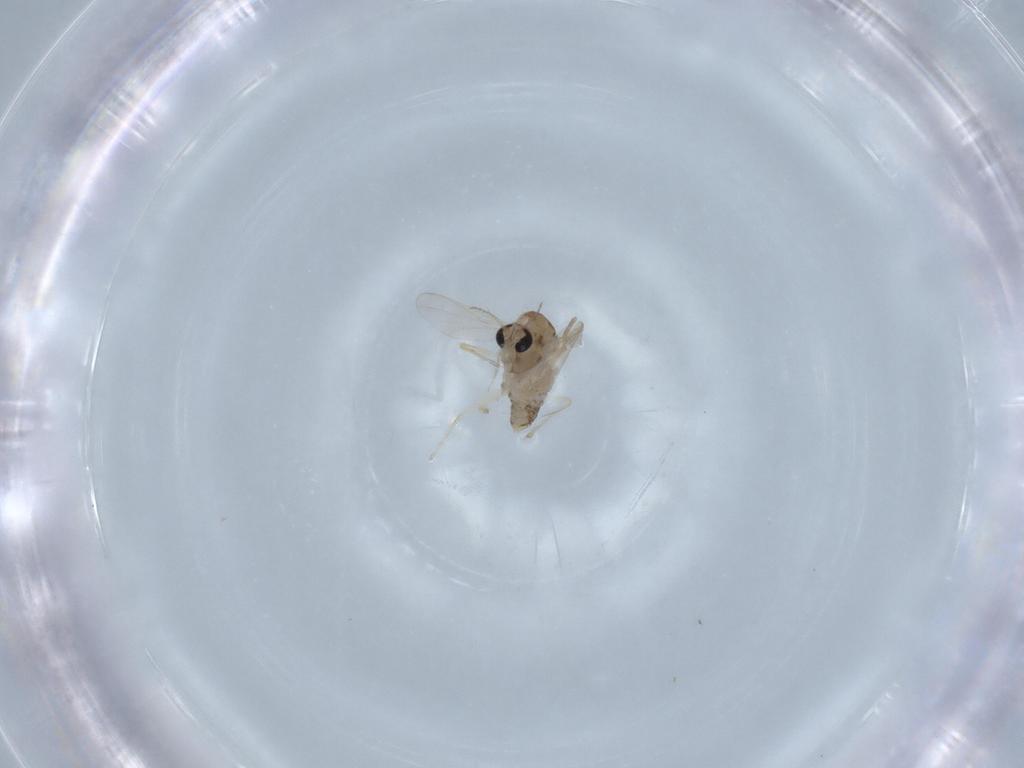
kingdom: Animalia
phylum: Arthropoda
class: Insecta
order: Diptera
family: Chironomidae
